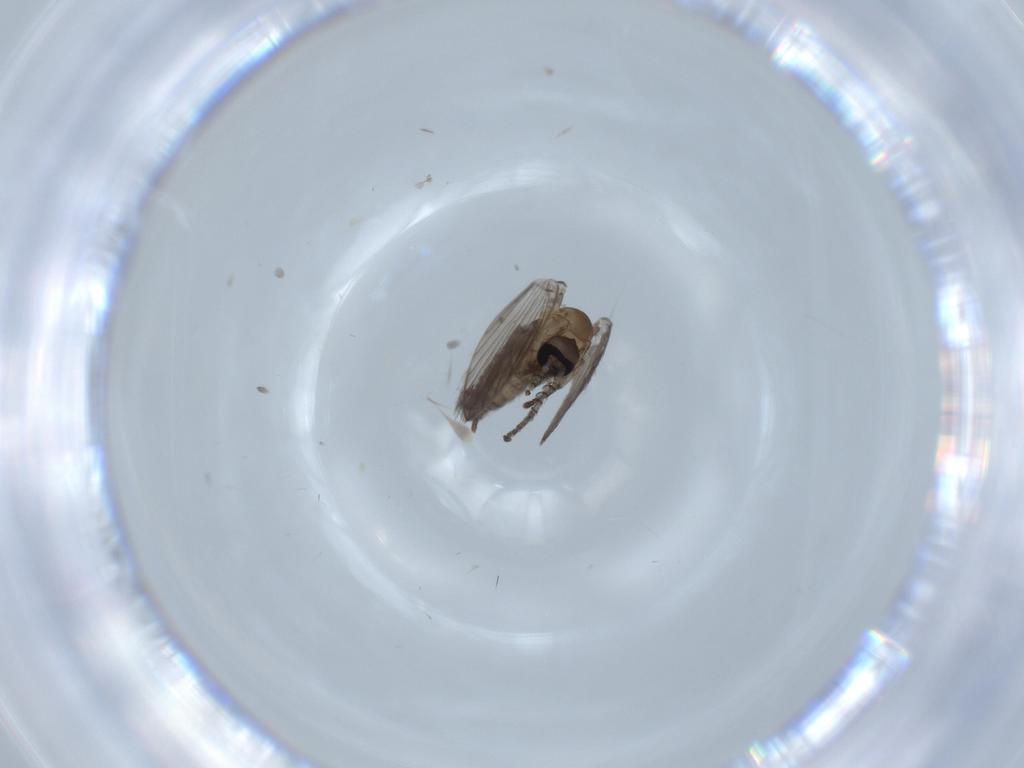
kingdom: Animalia
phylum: Arthropoda
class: Insecta
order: Diptera
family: Psychodidae
